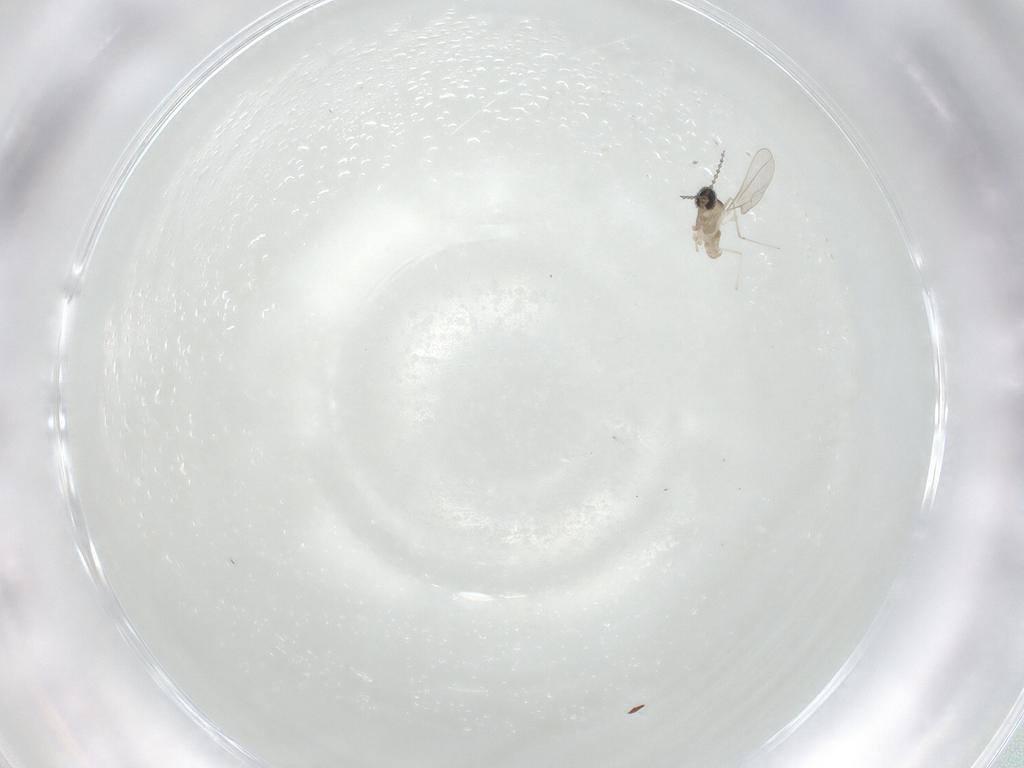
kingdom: Animalia
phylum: Arthropoda
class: Insecta
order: Diptera
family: Cecidomyiidae
